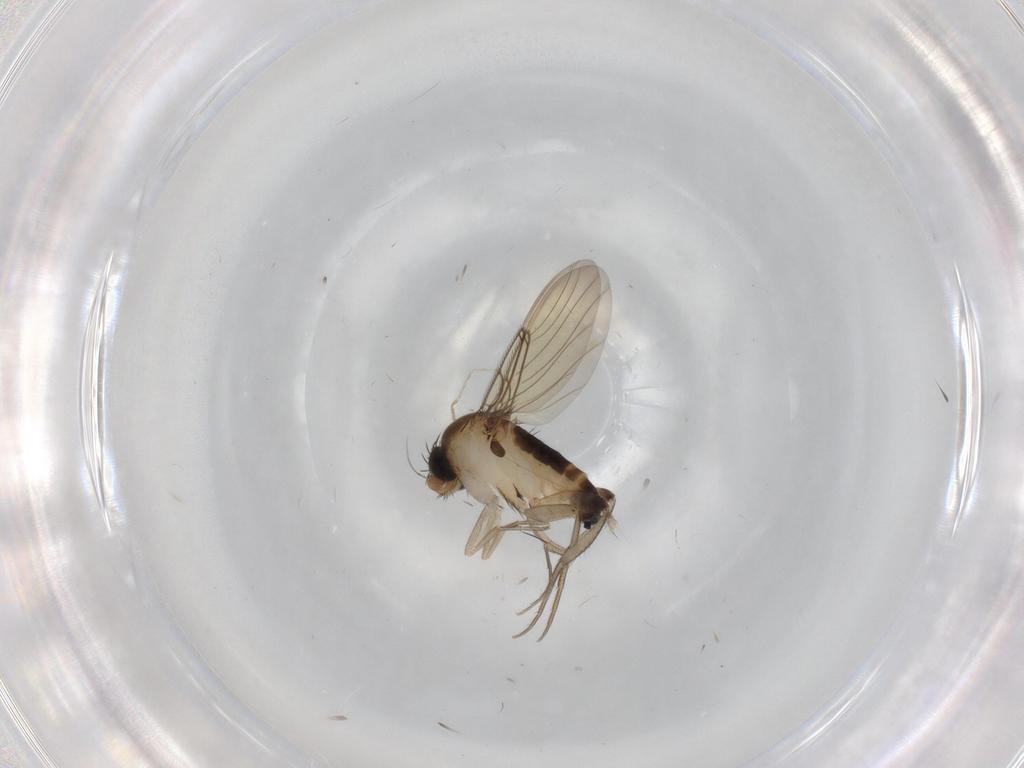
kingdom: Animalia
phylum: Arthropoda
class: Insecta
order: Diptera
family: Phoridae
